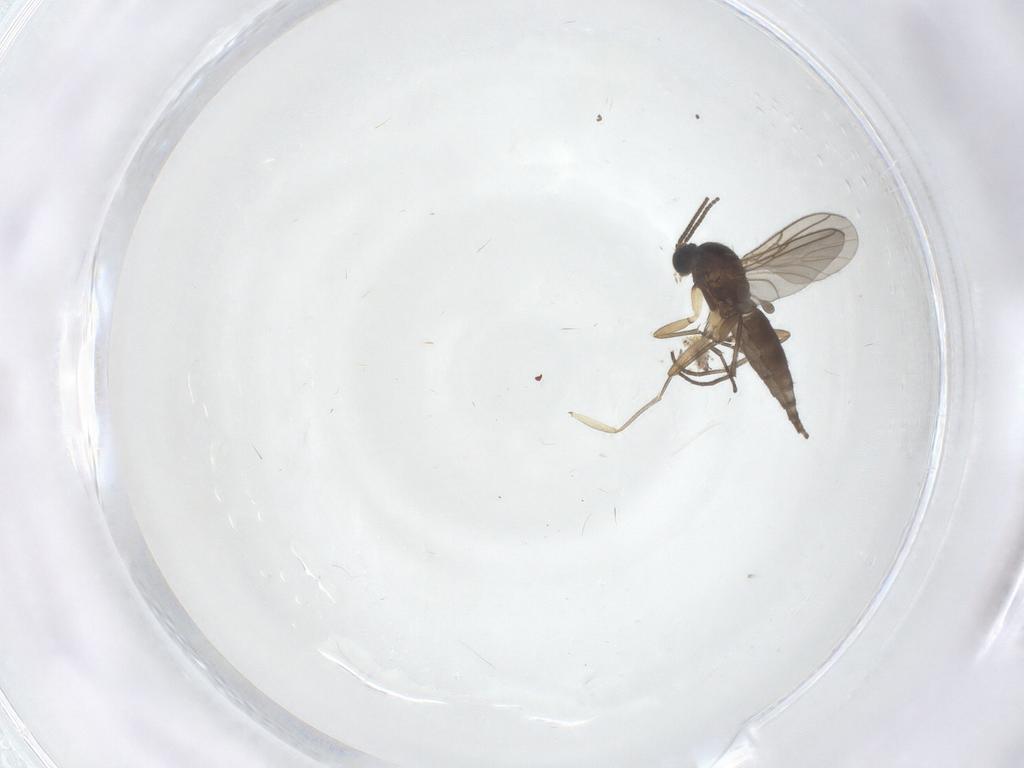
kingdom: Animalia
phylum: Arthropoda
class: Insecta
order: Diptera
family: Sciaridae
